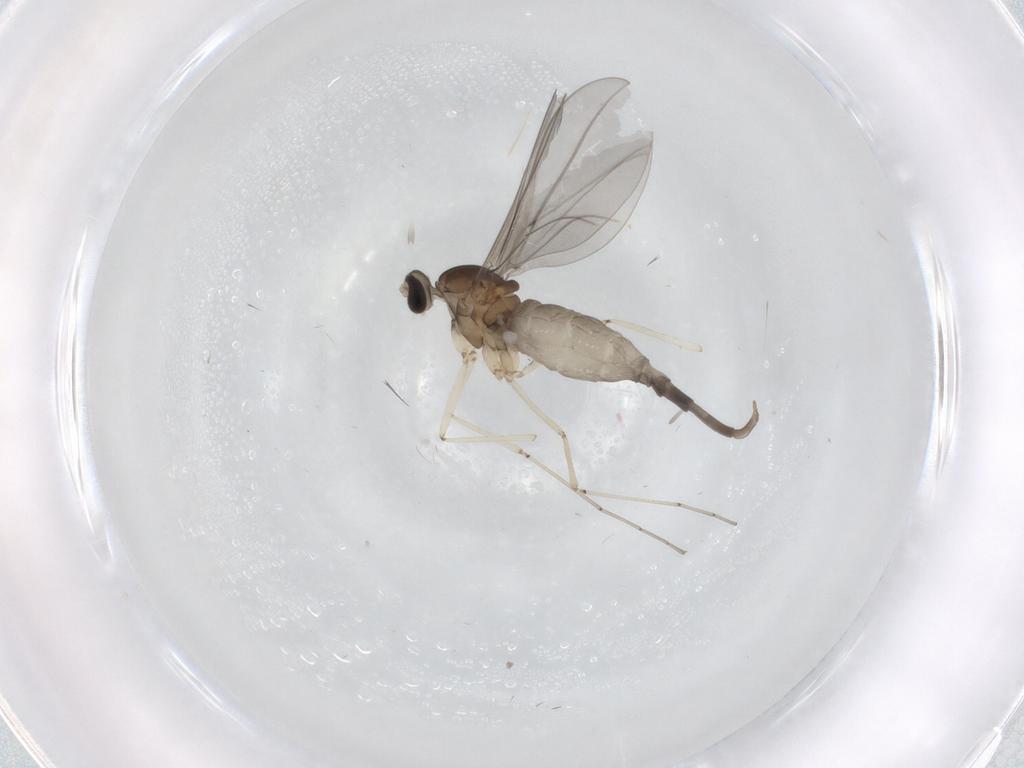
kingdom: Animalia
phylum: Arthropoda
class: Insecta
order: Diptera
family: Cecidomyiidae
